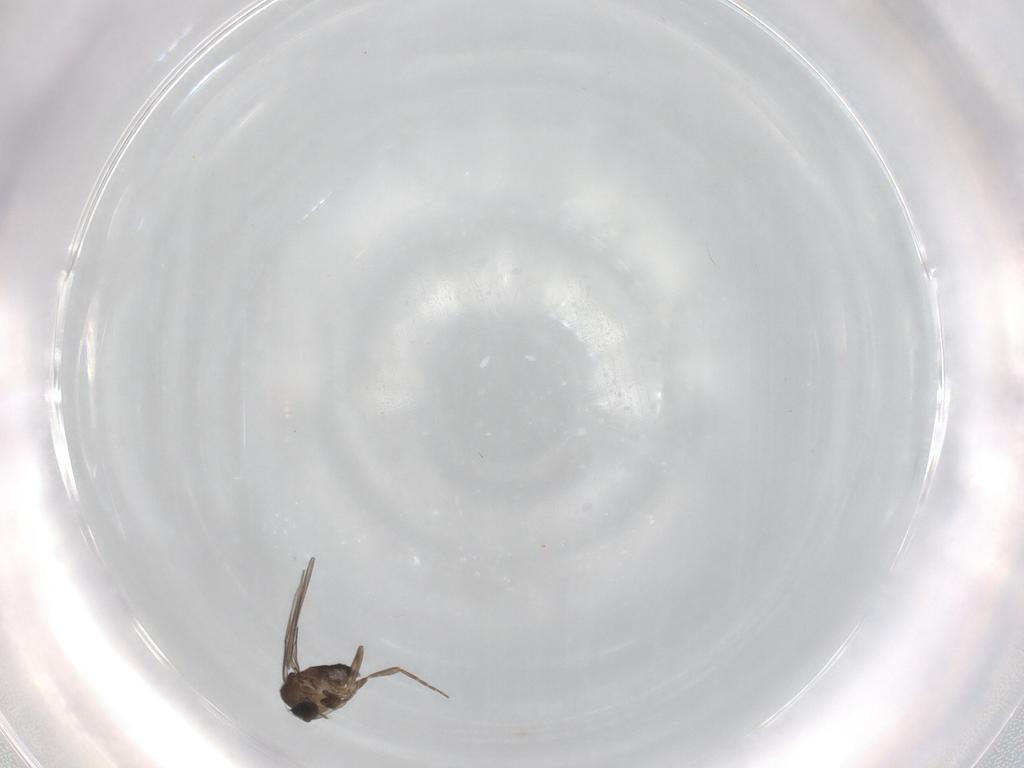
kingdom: Animalia
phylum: Arthropoda
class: Insecta
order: Diptera
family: Phoridae
